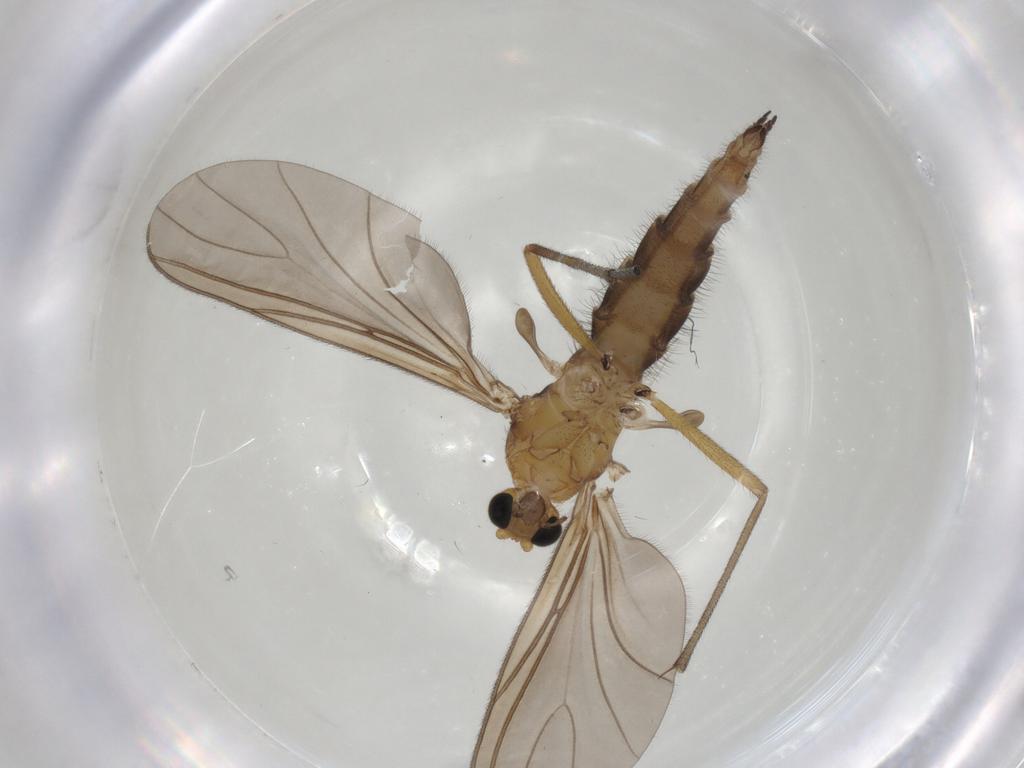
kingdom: Animalia
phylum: Arthropoda
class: Insecta
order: Diptera
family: Sciaridae
